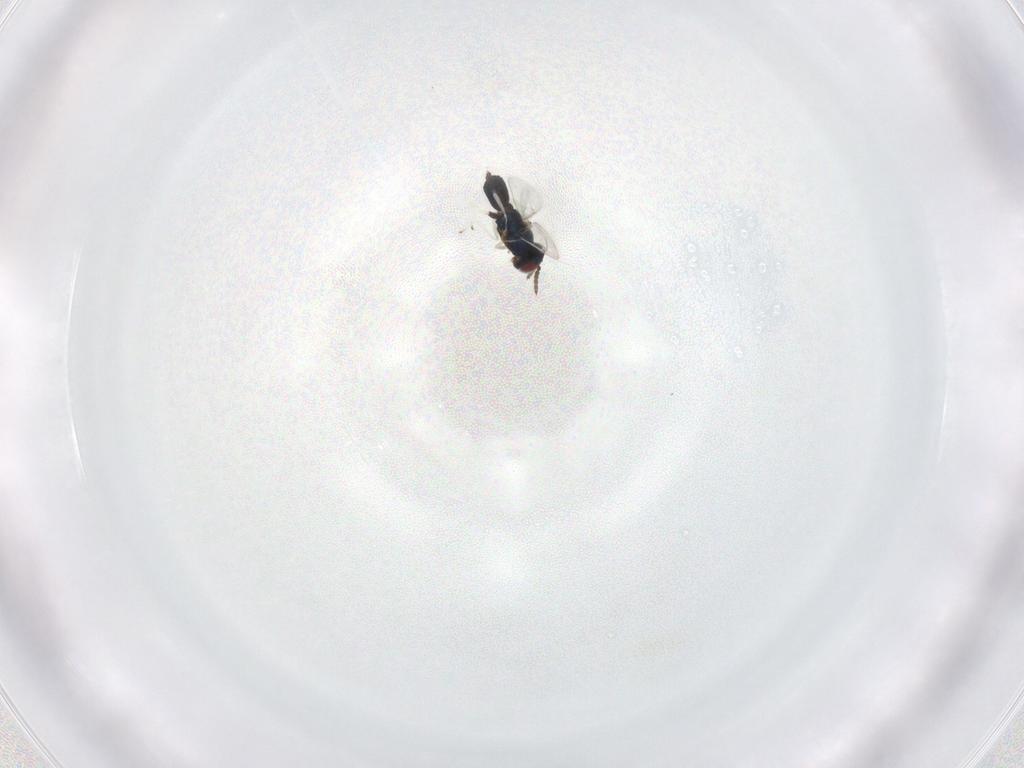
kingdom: Animalia
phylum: Arthropoda
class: Insecta
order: Hymenoptera
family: Eulophidae
